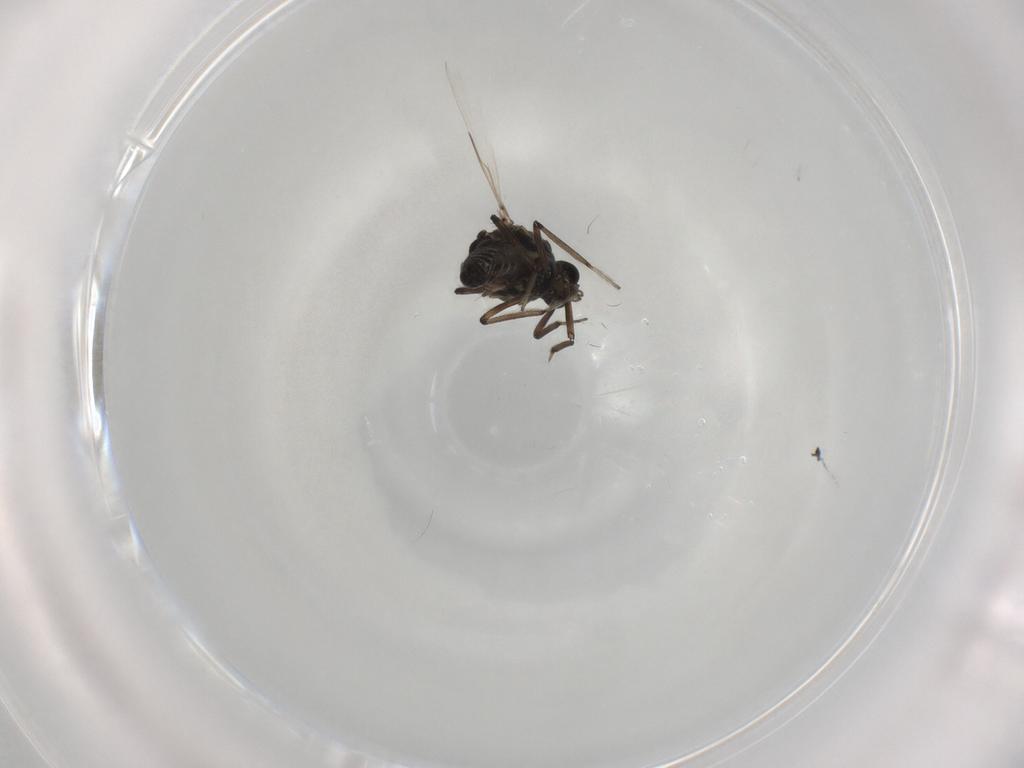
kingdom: Animalia
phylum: Arthropoda
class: Insecta
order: Diptera
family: Ceratopogonidae
